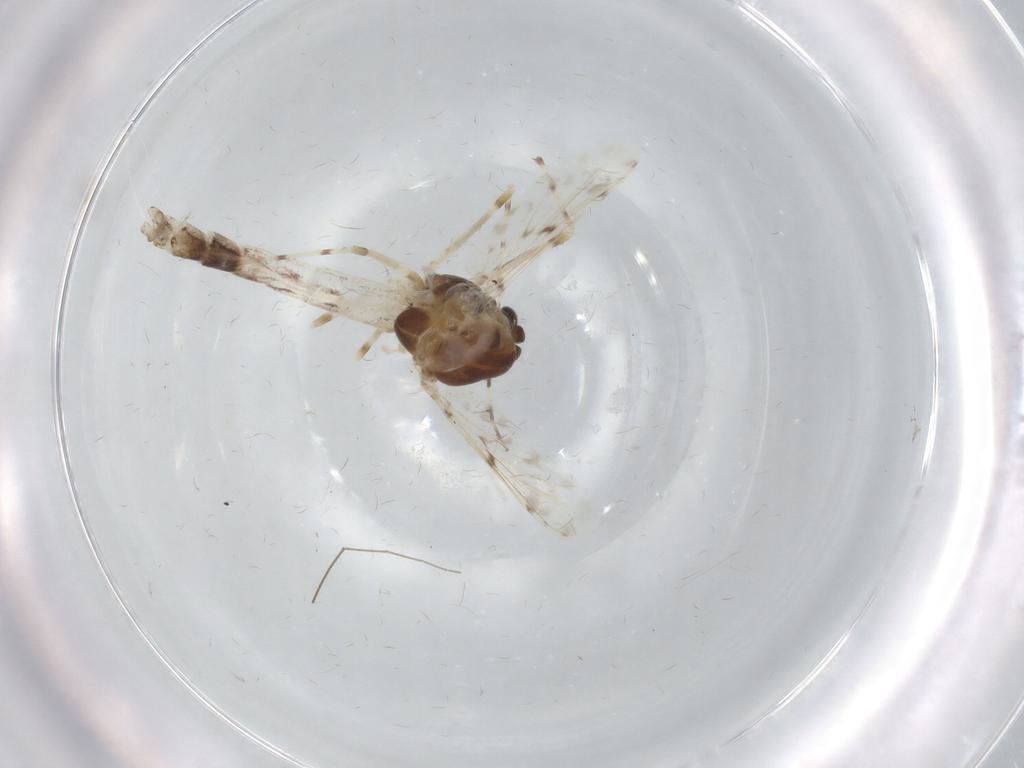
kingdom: Animalia
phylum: Arthropoda
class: Insecta
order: Diptera
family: Chironomidae
